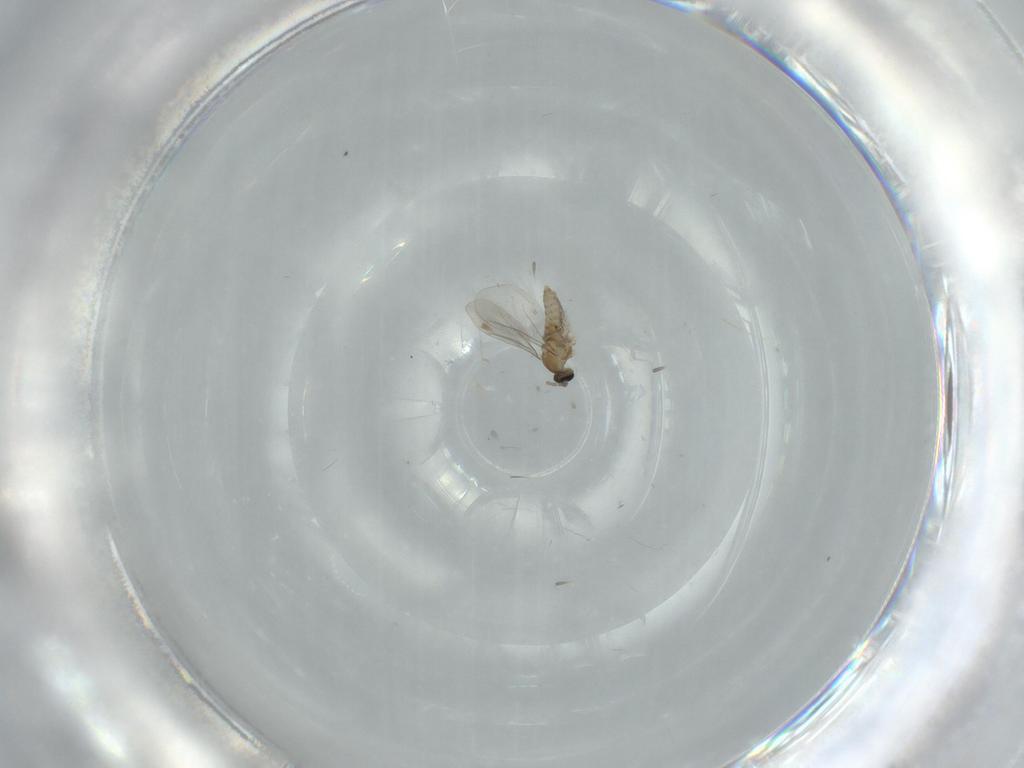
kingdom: Animalia
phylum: Arthropoda
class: Insecta
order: Diptera
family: Cecidomyiidae
